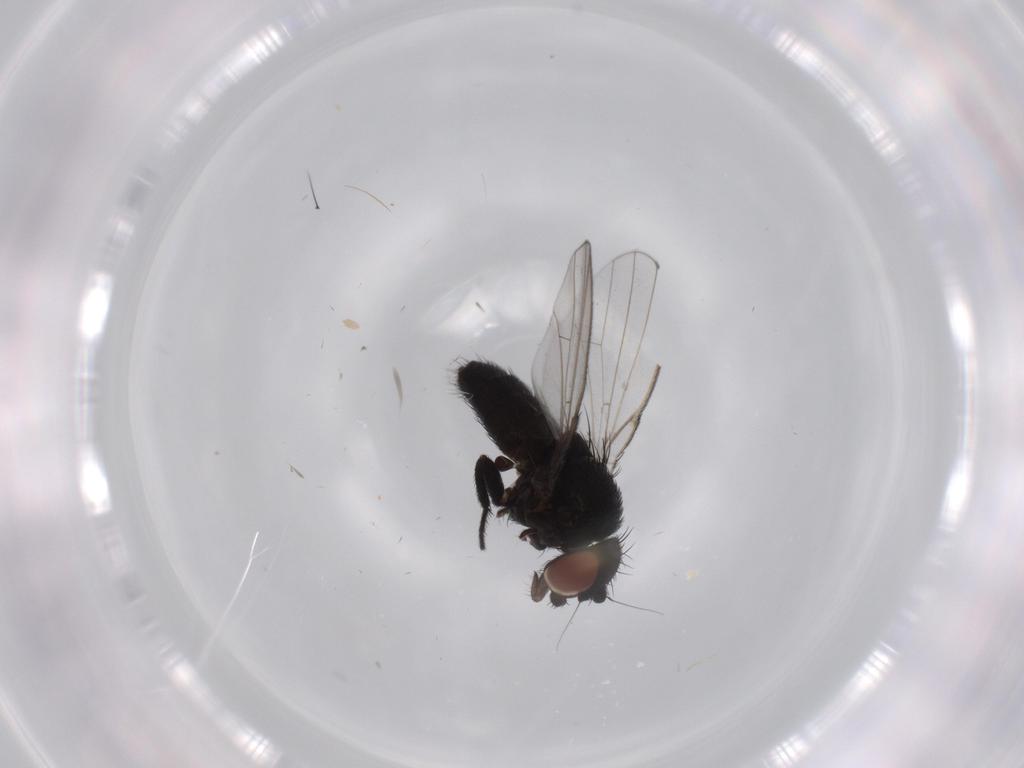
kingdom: Animalia
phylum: Arthropoda
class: Insecta
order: Diptera
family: Milichiidae
